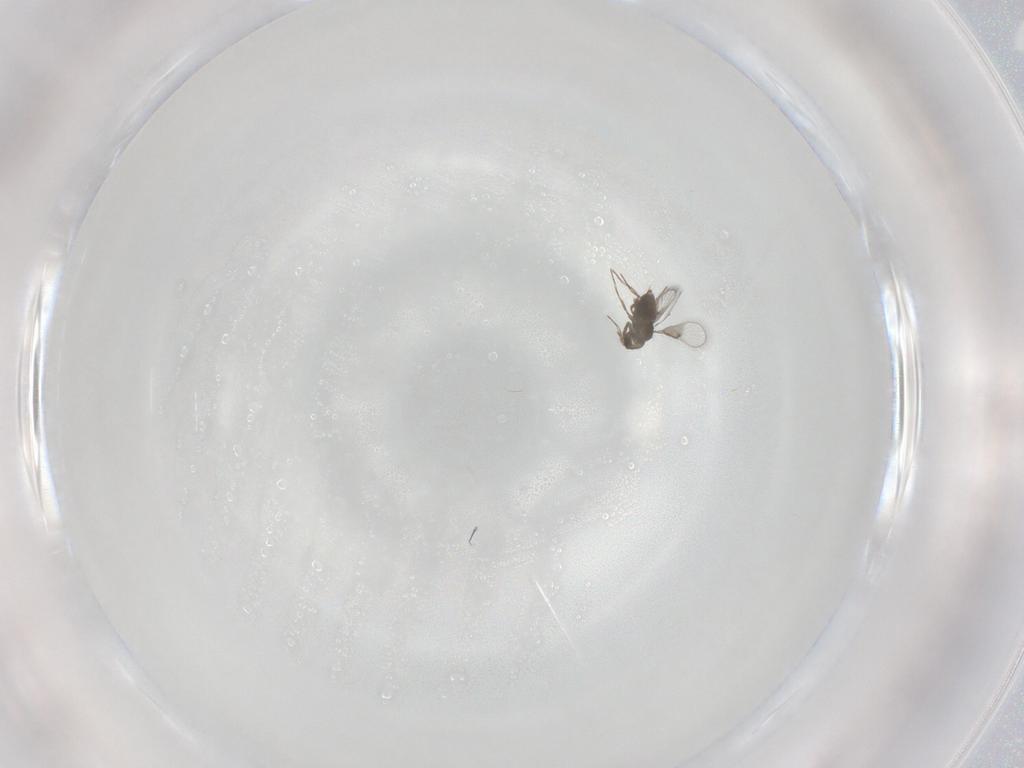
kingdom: Animalia
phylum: Arthropoda
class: Insecta
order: Hymenoptera
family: Trichogrammatidae
